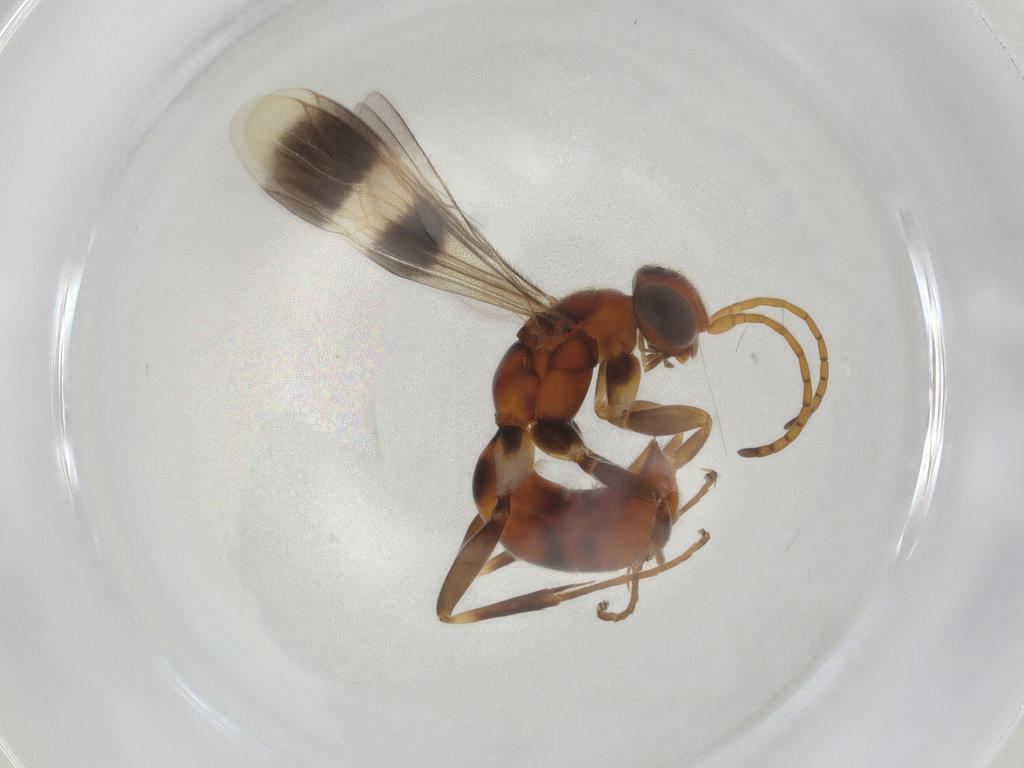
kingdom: Animalia
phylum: Arthropoda
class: Insecta
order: Hymenoptera
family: Pompilidae
